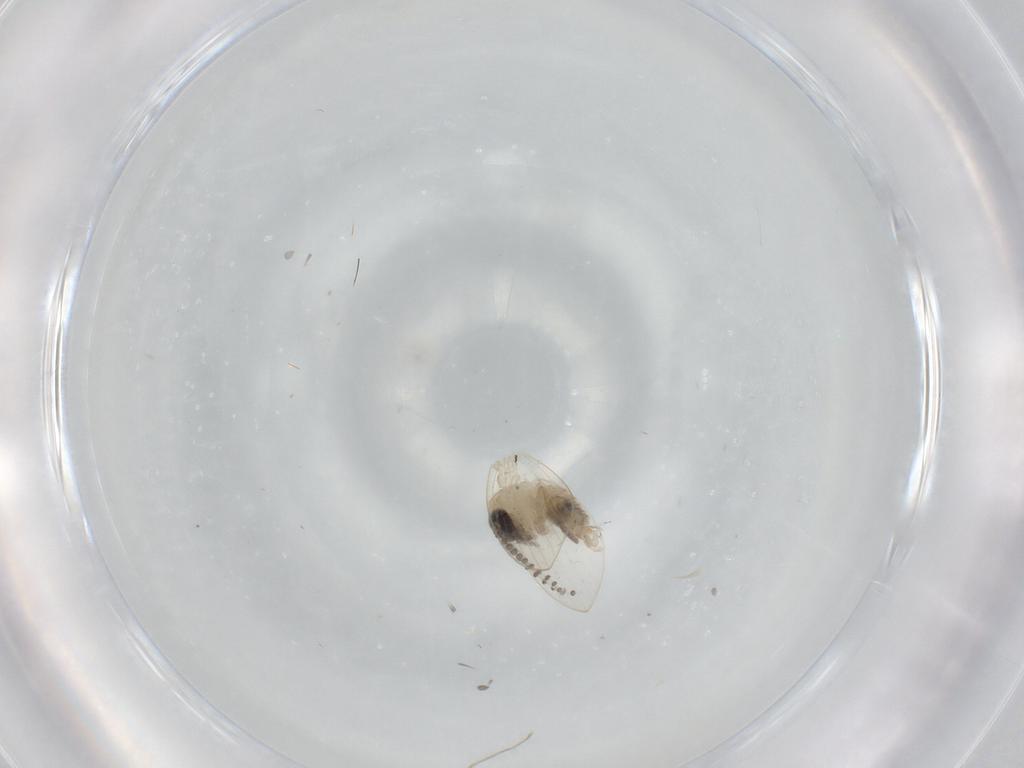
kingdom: Animalia
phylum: Arthropoda
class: Insecta
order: Diptera
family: Psychodidae
